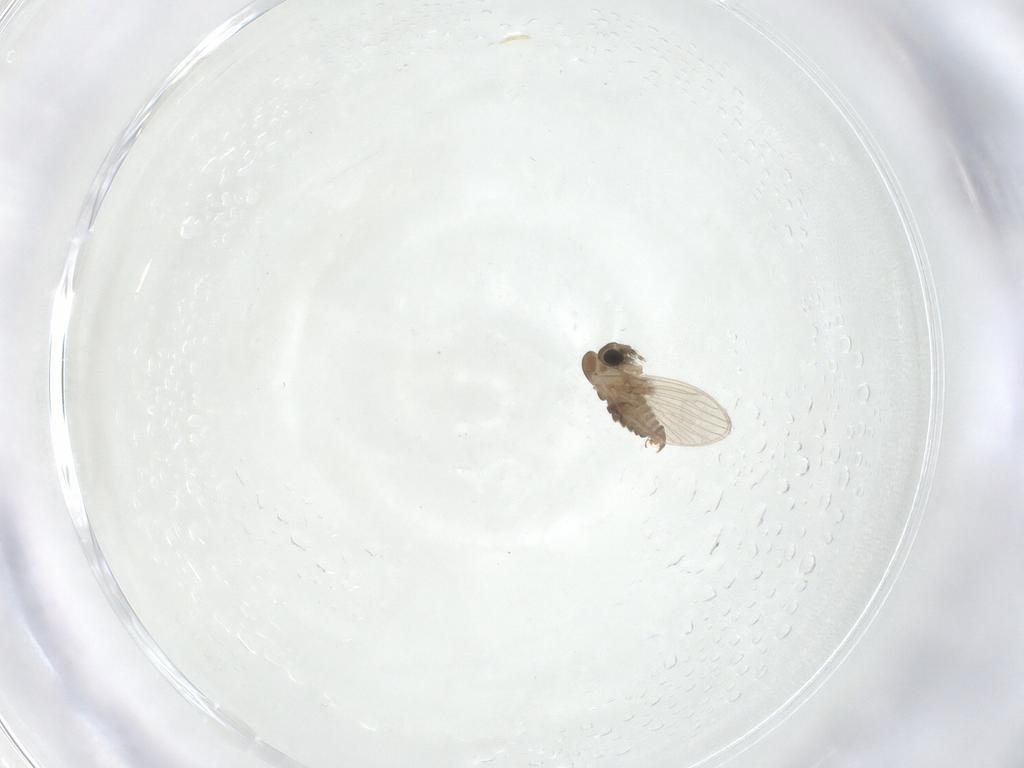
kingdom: Animalia
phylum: Arthropoda
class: Insecta
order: Diptera
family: Psychodidae
